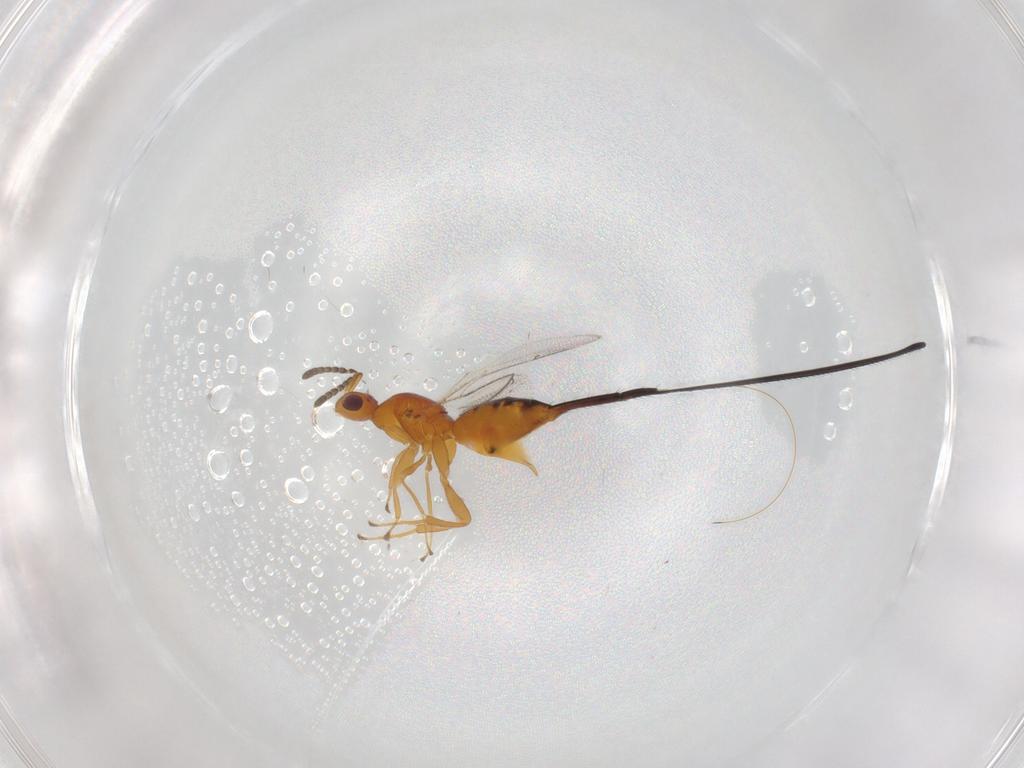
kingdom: Animalia
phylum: Arthropoda
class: Insecta
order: Hymenoptera
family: Pteromalidae
